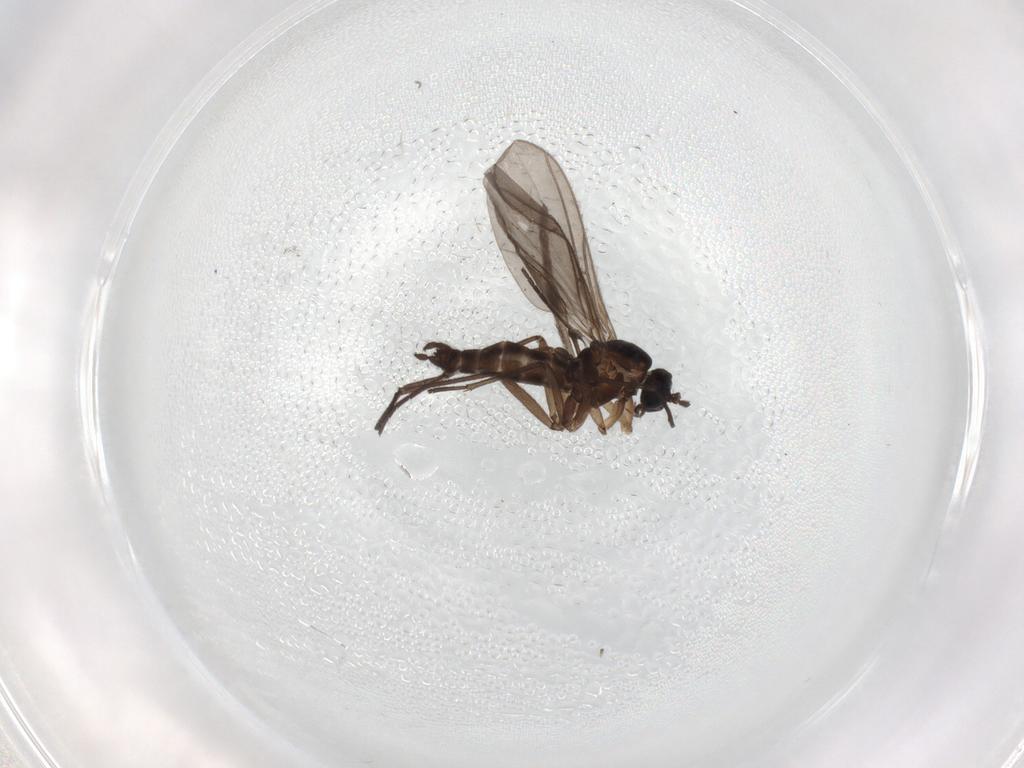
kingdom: Animalia
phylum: Arthropoda
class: Insecta
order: Diptera
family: Sciaridae
